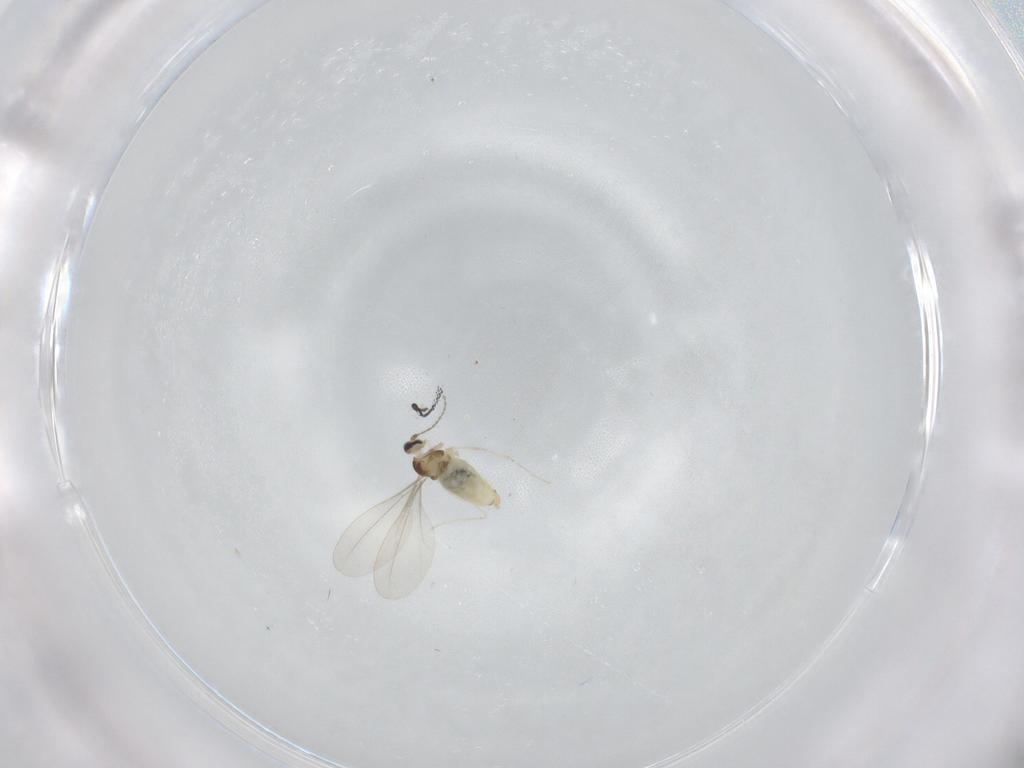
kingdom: Animalia
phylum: Arthropoda
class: Insecta
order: Diptera
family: Cecidomyiidae
